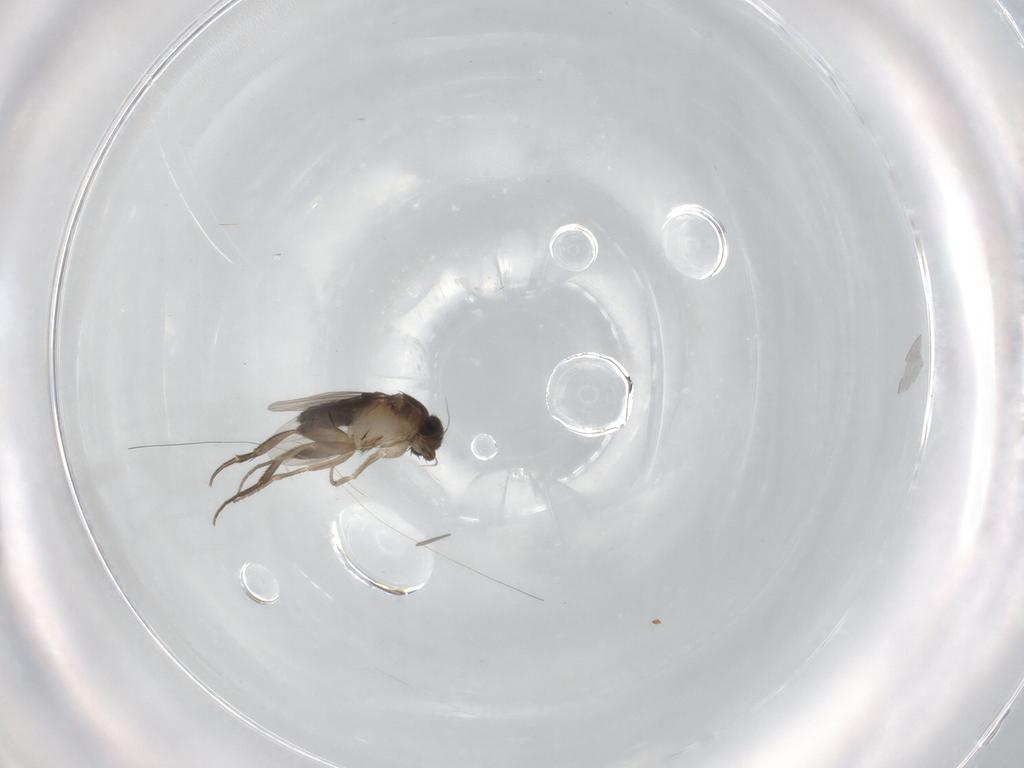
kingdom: Animalia
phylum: Arthropoda
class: Insecta
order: Diptera
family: Phoridae
